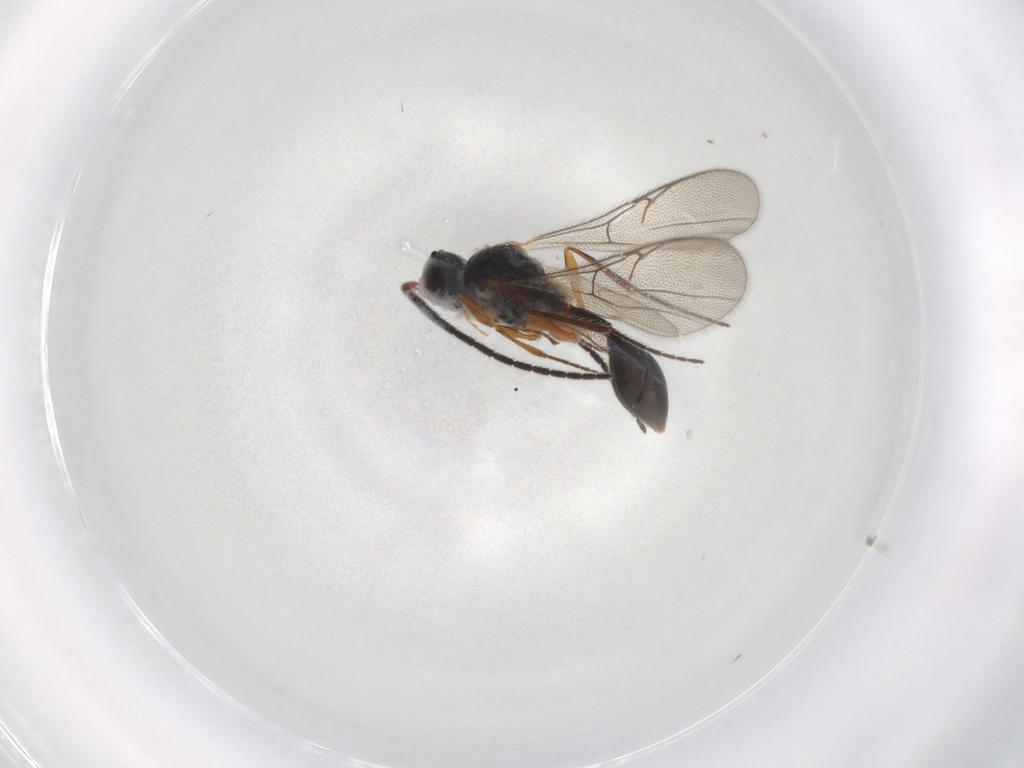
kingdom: Animalia
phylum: Arthropoda
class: Insecta
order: Hymenoptera
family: Diapriidae
